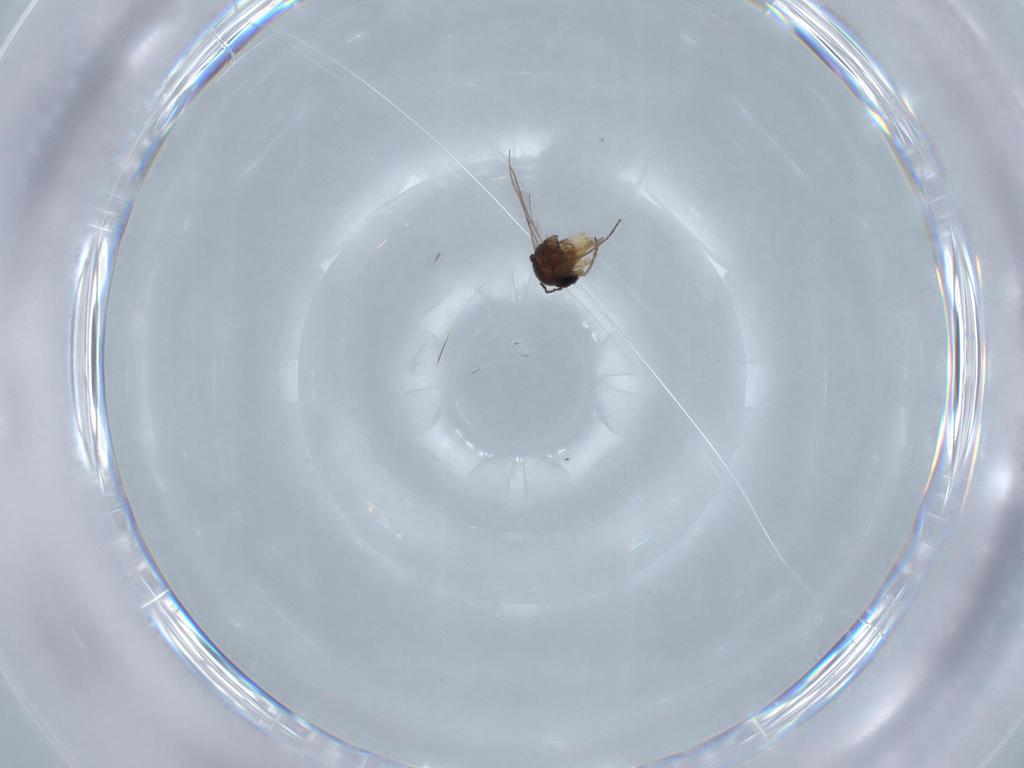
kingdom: Animalia
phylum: Arthropoda
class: Insecta
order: Diptera
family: Sciaridae
